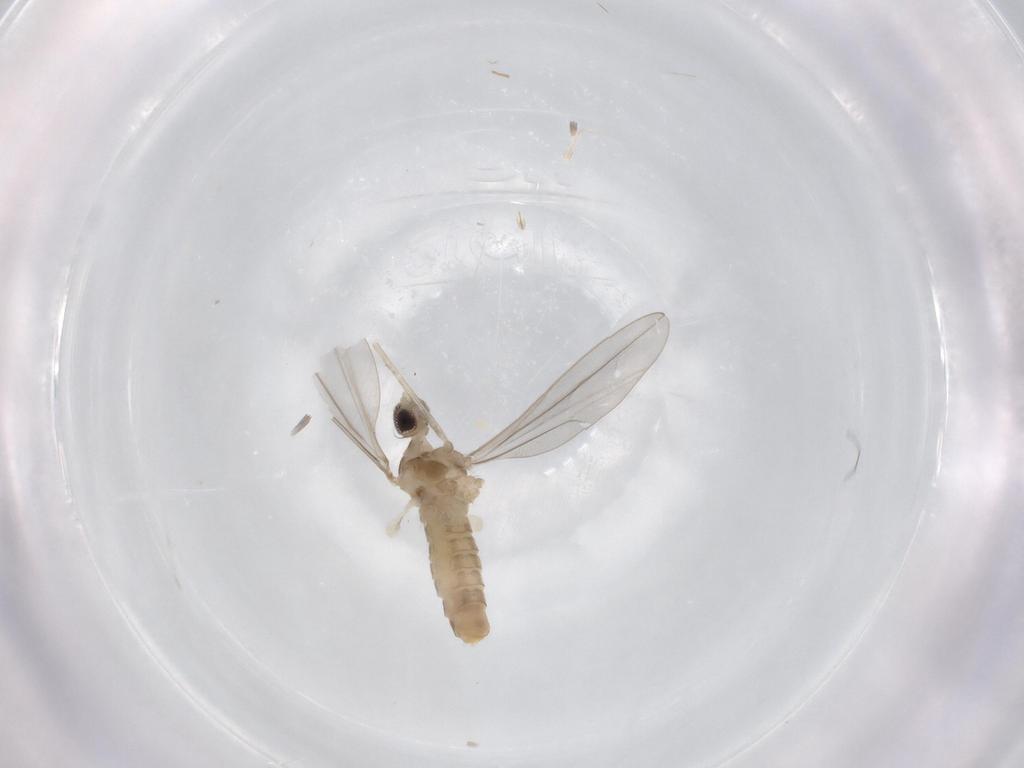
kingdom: Animalia
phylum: Arthropoda
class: Insecta
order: Diptera
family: Cecidomyiidae
